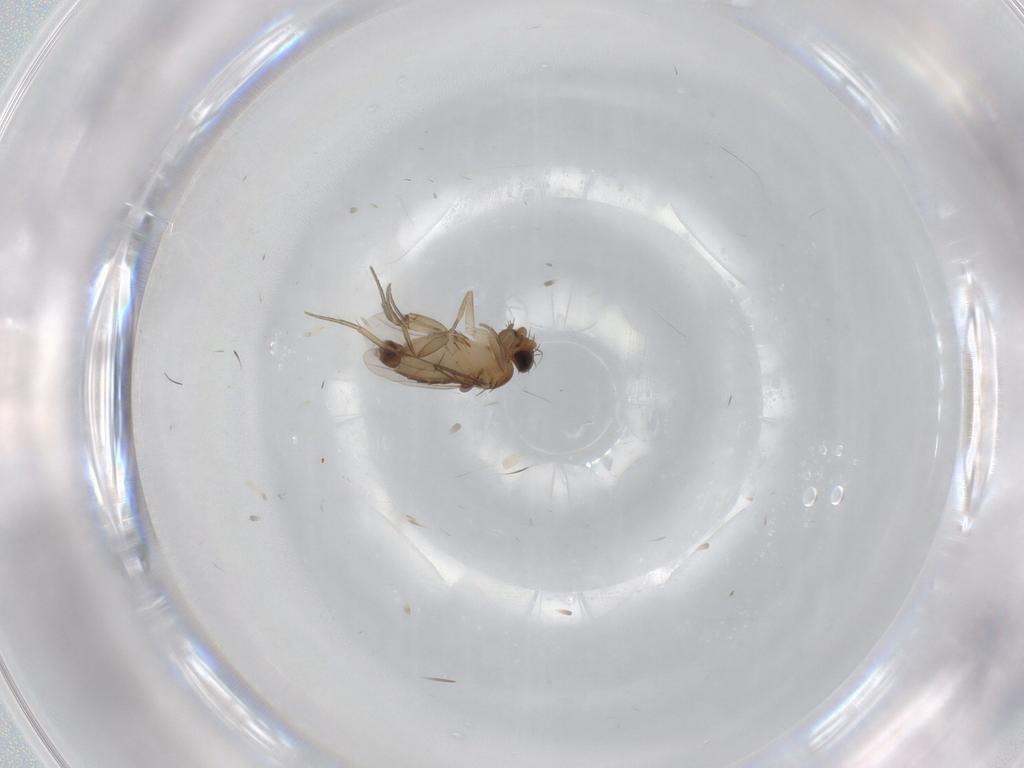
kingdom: Animalia
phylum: Arthropoda
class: Insecta
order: Diptera
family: Phoridae
